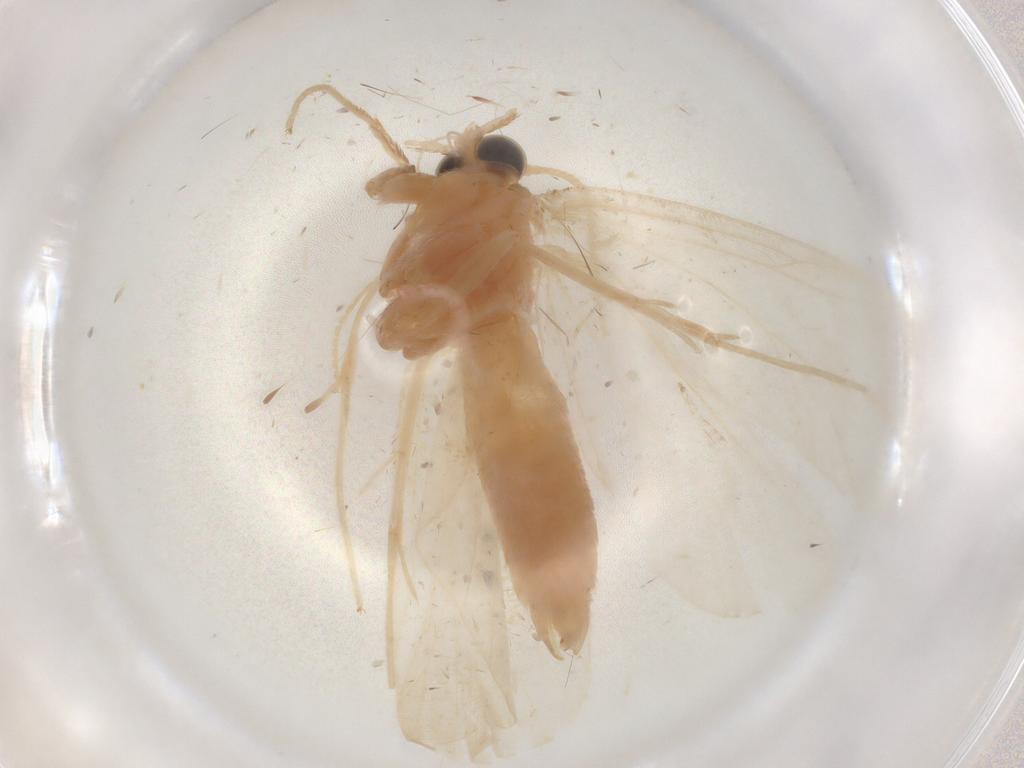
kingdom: Animalia
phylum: Arthropoda
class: Insecta
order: Lepidoptera
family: Crambidae
